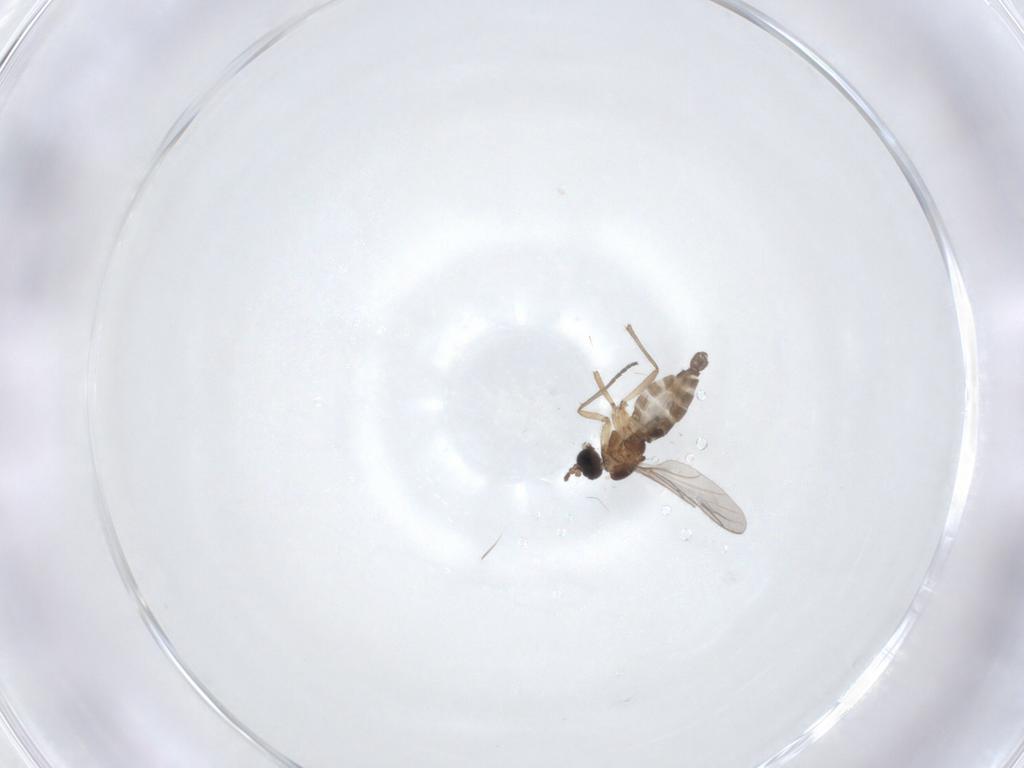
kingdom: Animalia
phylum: Arthropoda
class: Insecta
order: Diptera
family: Sciaridae
